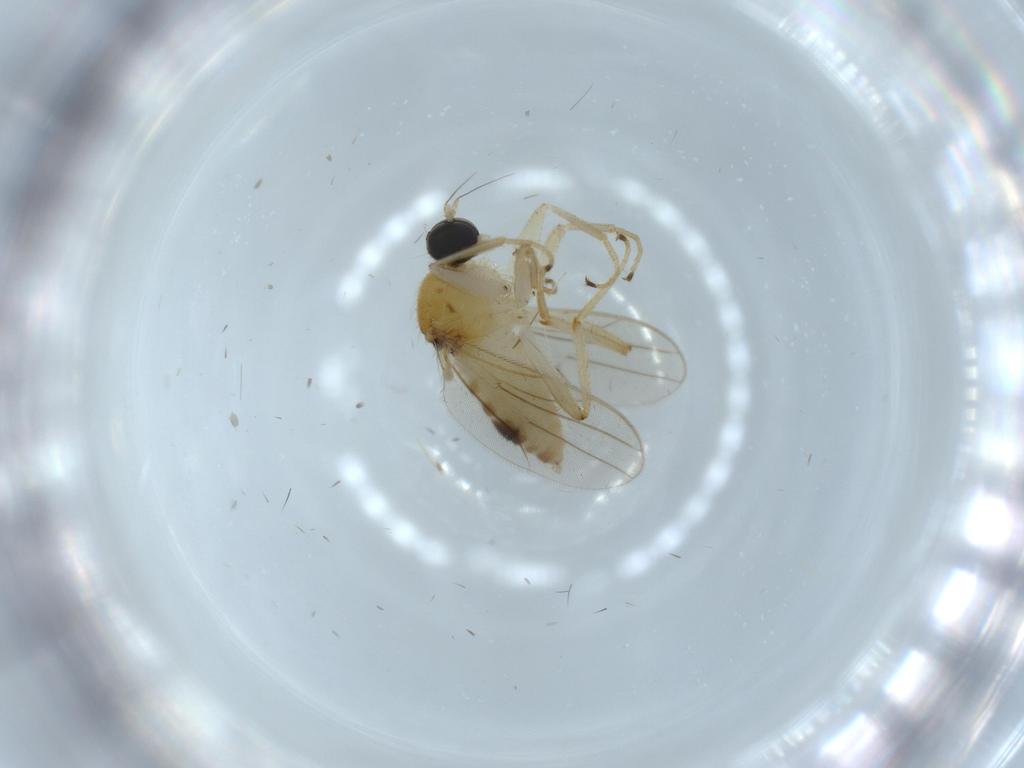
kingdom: Animalia
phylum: Arthropoda
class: Insecta
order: Diptera
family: Hybotidae
